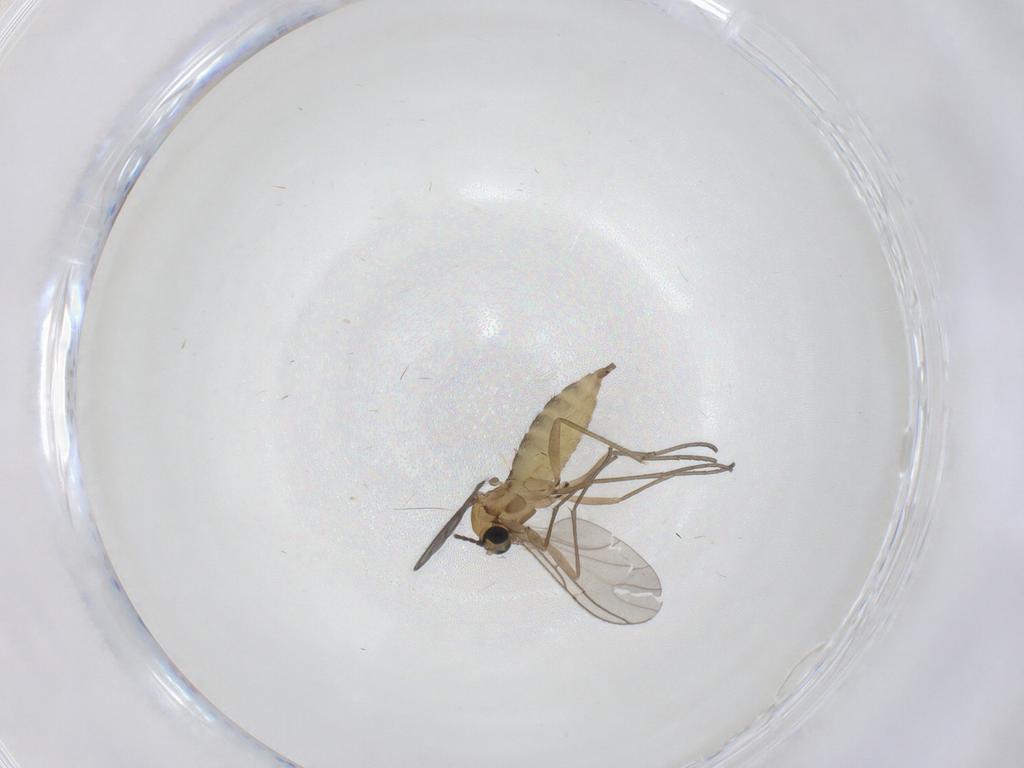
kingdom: Animalia
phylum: Arthropoda
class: Insecta
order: Diptera
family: Sciaridae
